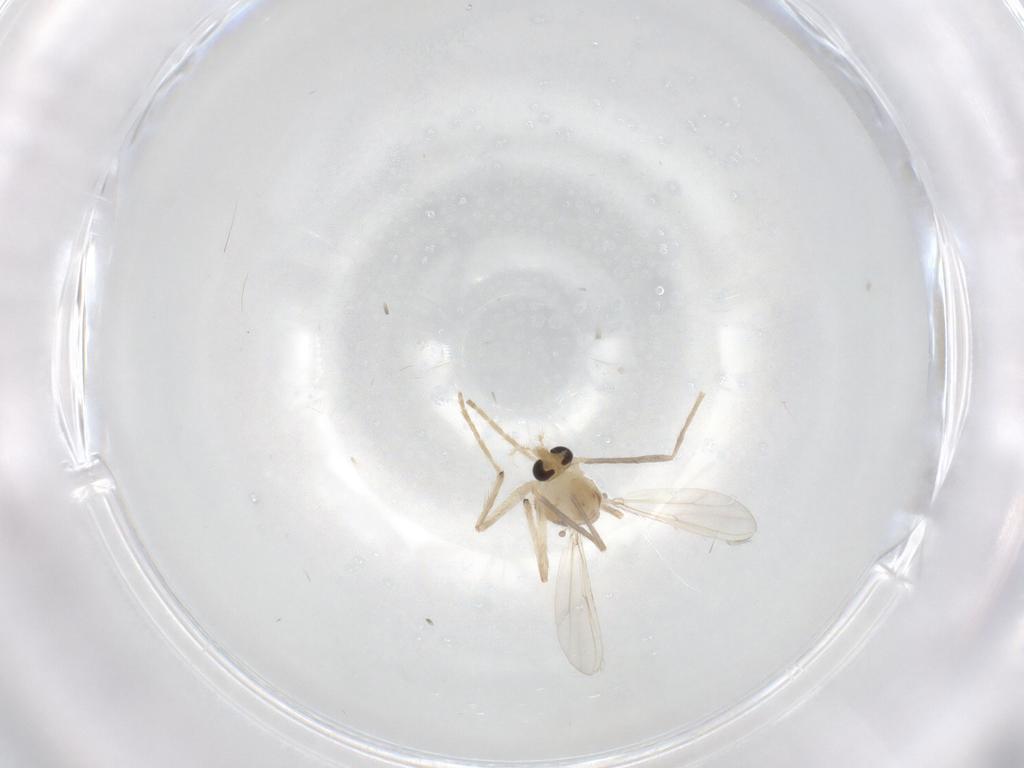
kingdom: Animalia
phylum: Arthropoda
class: Insecta
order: Diptera
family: Chironomidae
